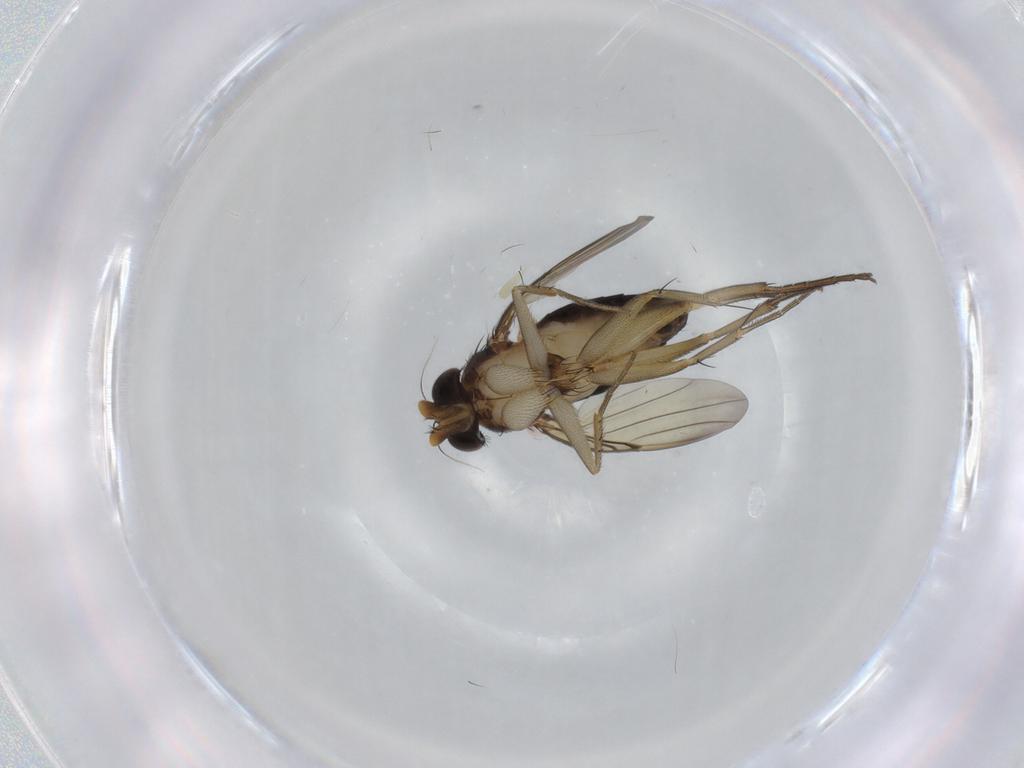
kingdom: Animalia
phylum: Arthropoda
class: Insecta
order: Diptera
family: Phoridae
